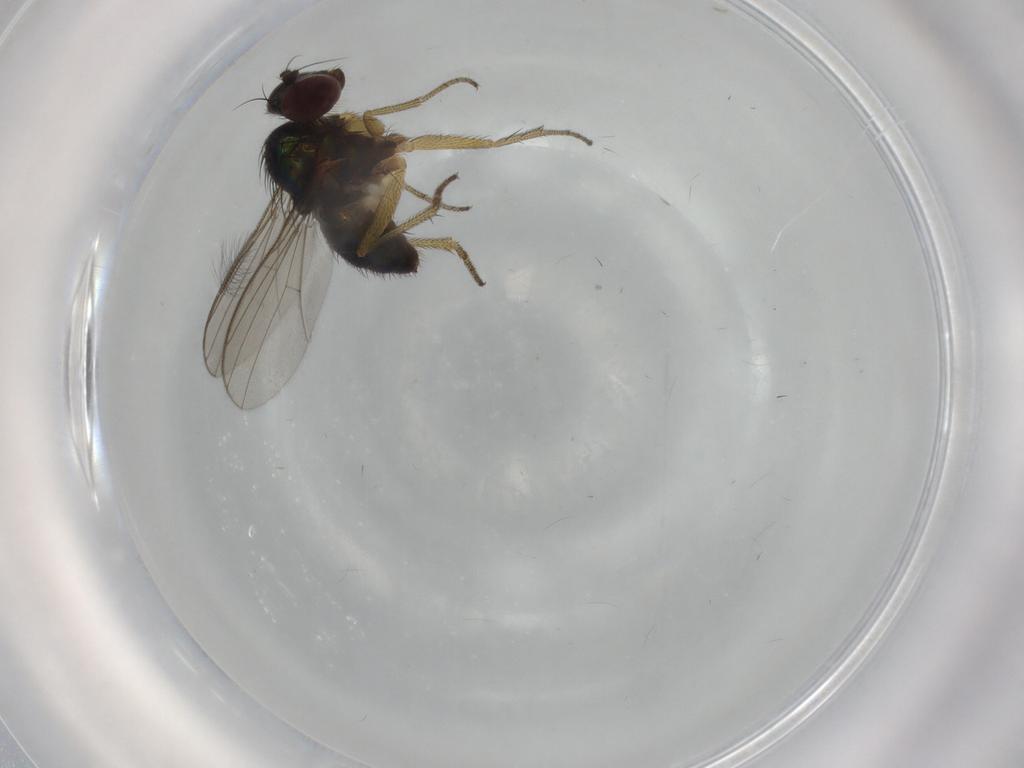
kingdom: Animalia
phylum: Arthropoda
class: Insecta
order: Diptera
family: Dolichopodidae
